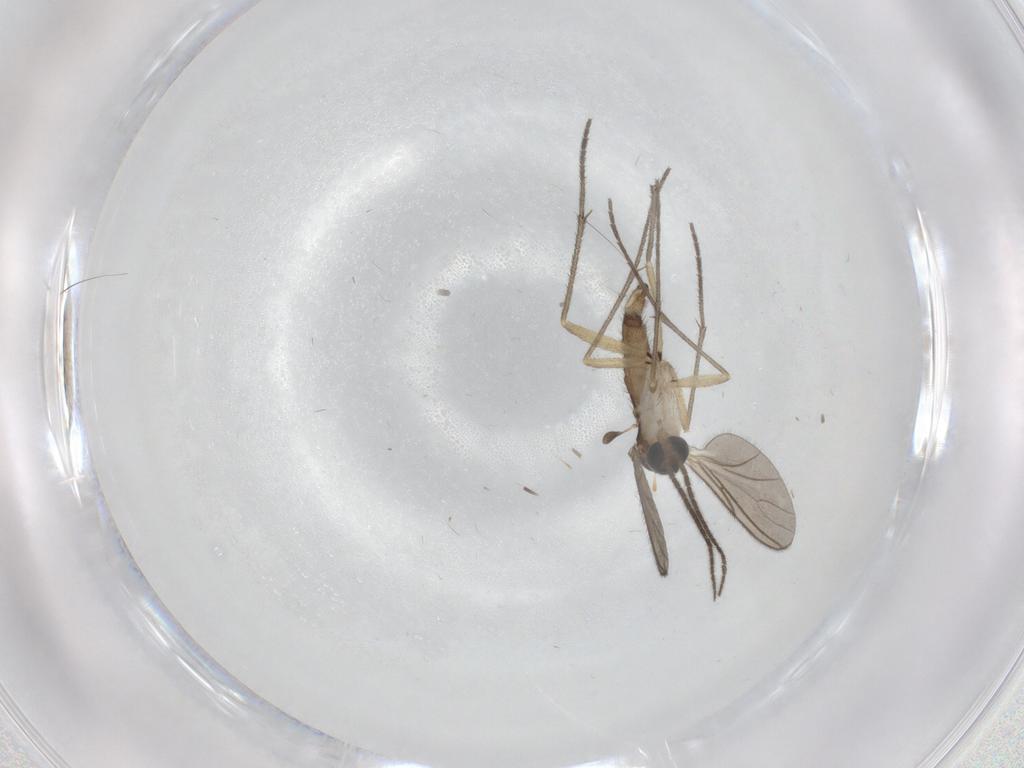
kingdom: Animalia
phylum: Arthropoda
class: Insecta
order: Diptera
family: Sciaridae
